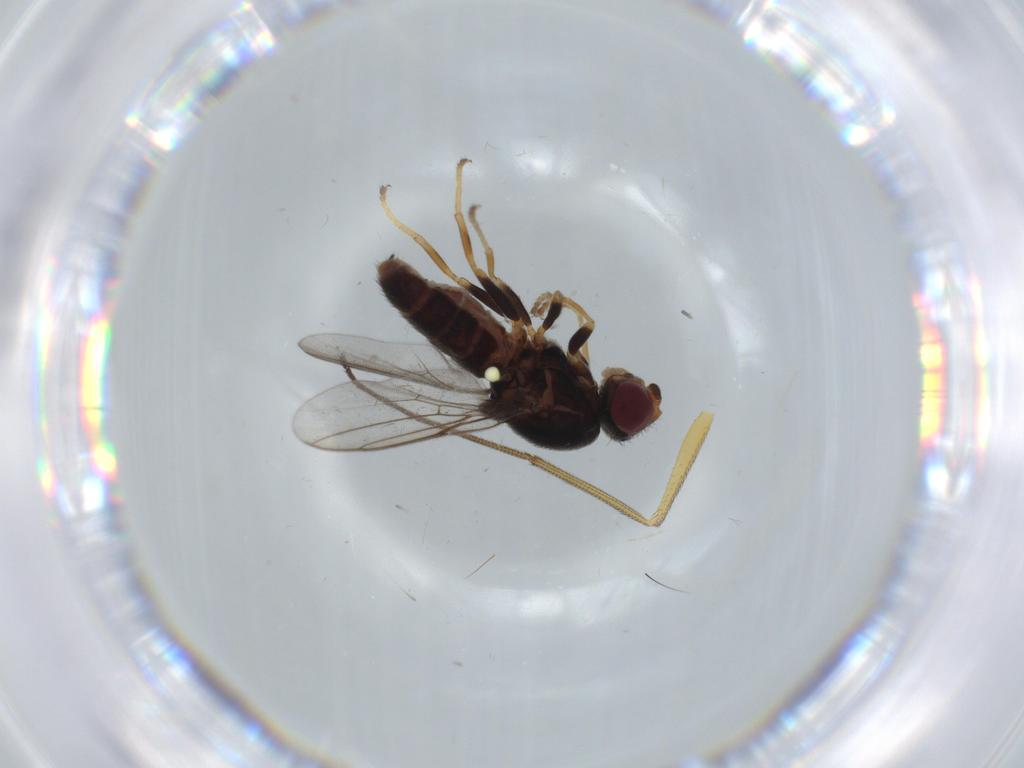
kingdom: Animalia
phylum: Arthropoda
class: Insecta
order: Diptera
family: Chloropidae
